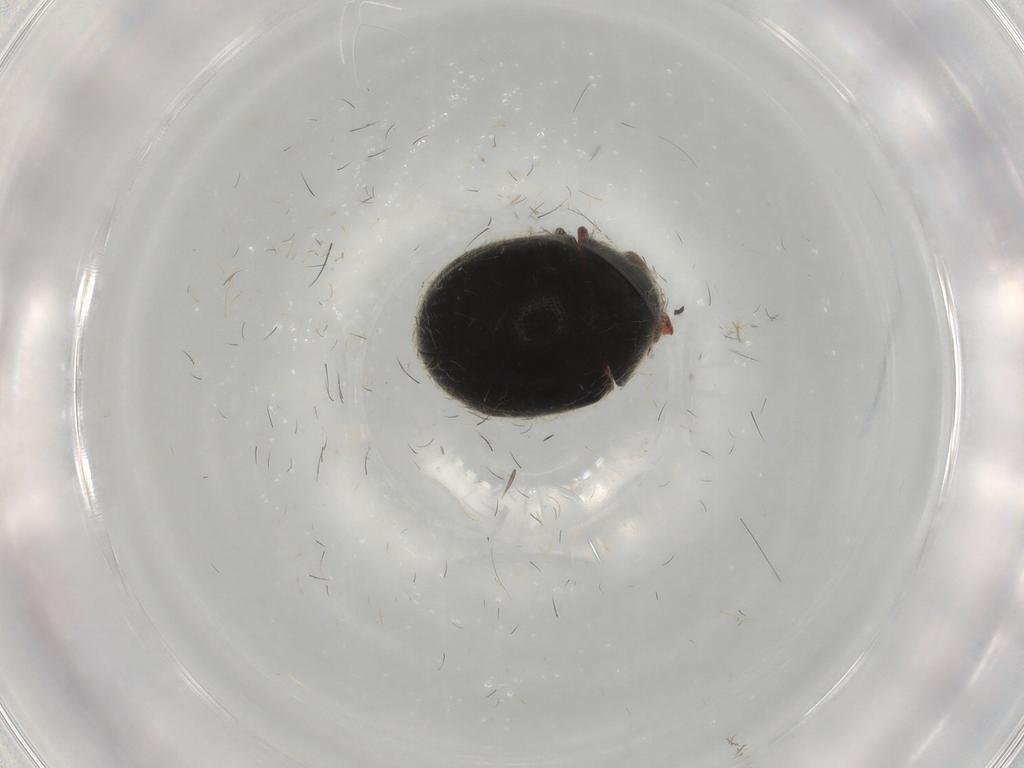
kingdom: Animalia
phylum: Arthropoda
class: Insecta
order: Coleoptera
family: Ptinidae
